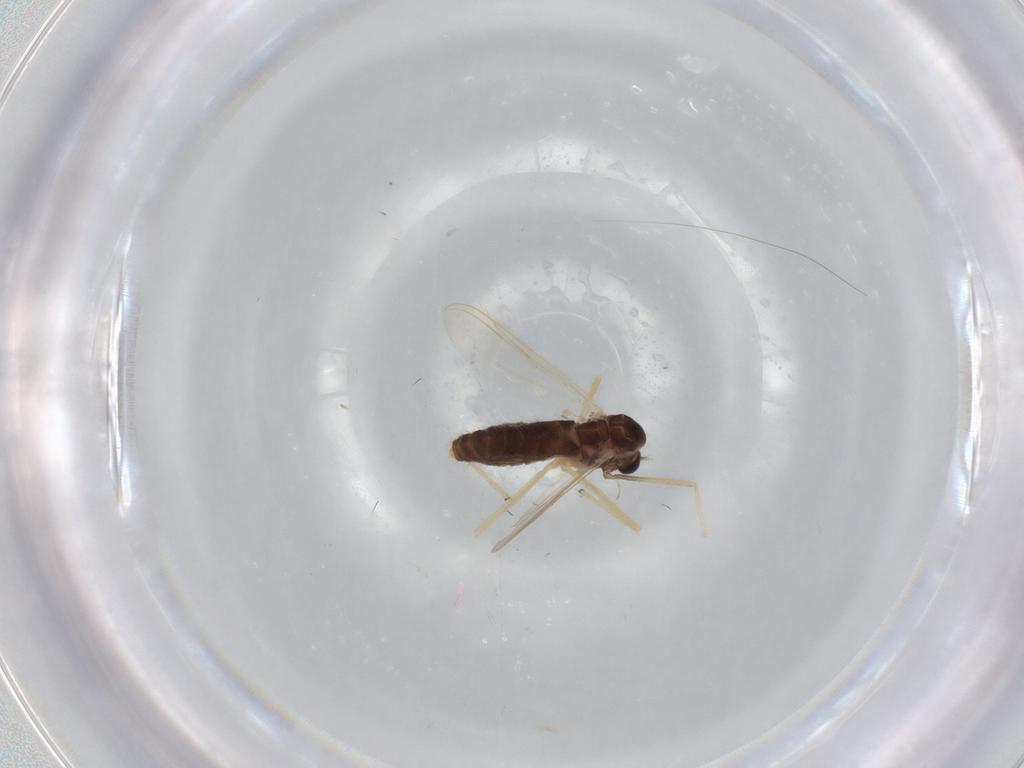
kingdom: Animalia
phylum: Arthropoda
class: Insecta
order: Diptera
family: Chironomidae
